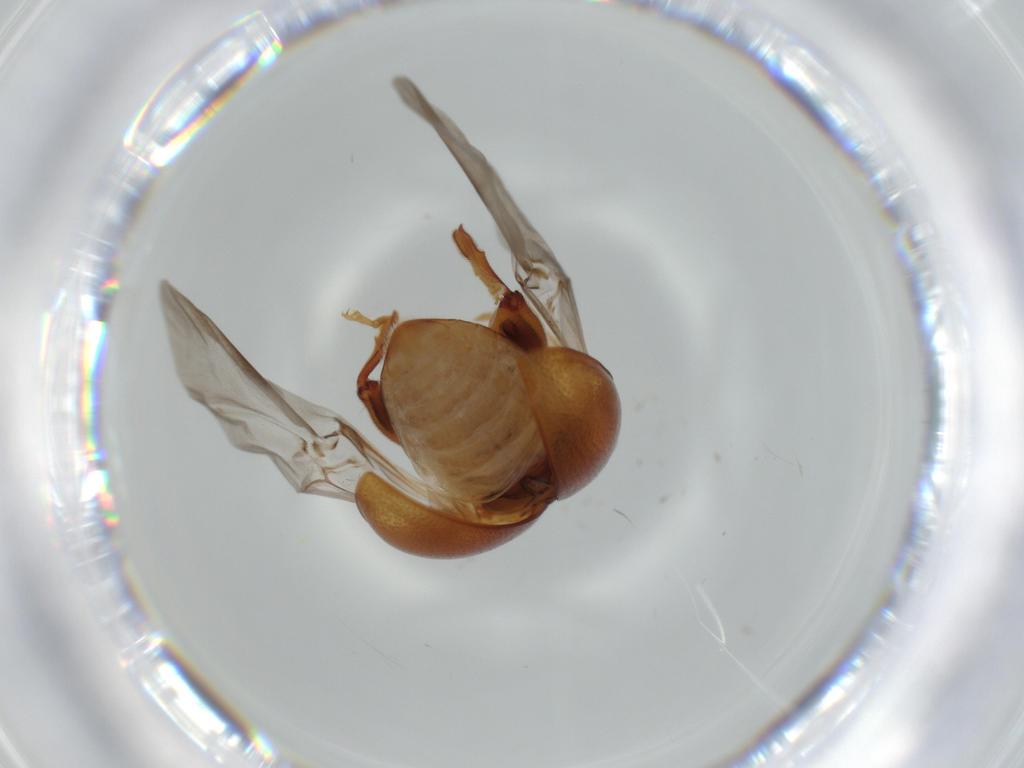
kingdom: Animalia
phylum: Arthropoda
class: Insecta
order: Coleoptera
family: Chrysomelidae
